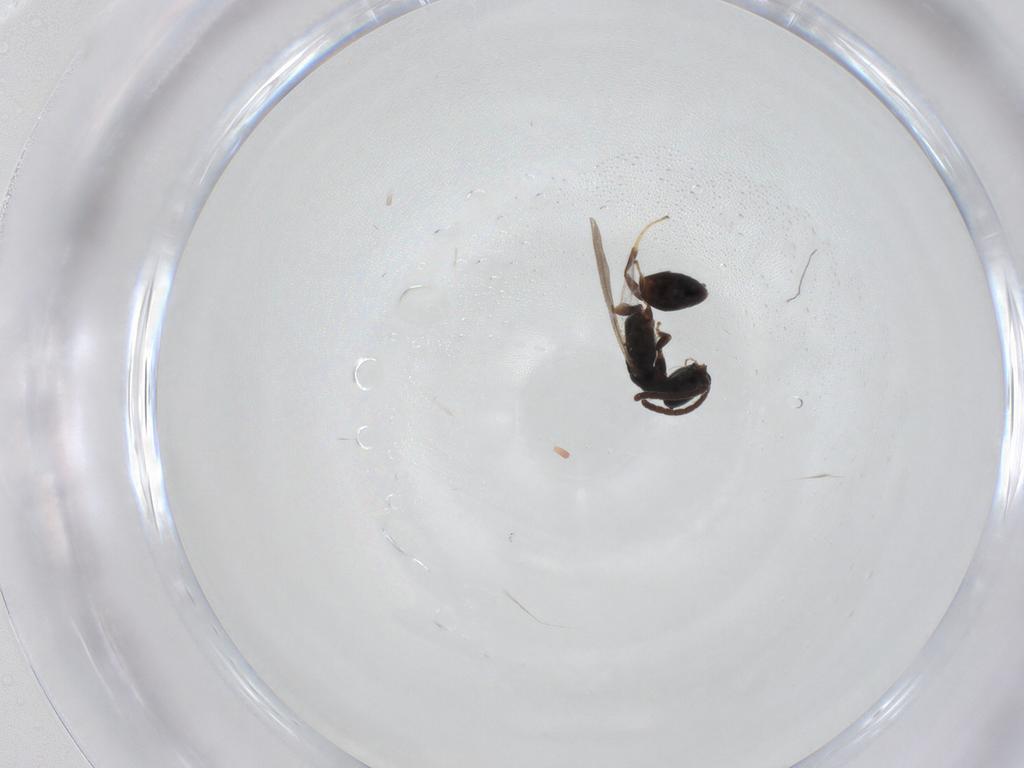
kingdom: Animalia
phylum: Arthropoda
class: Insecta
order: Hymenoptera
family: Bethylidae
